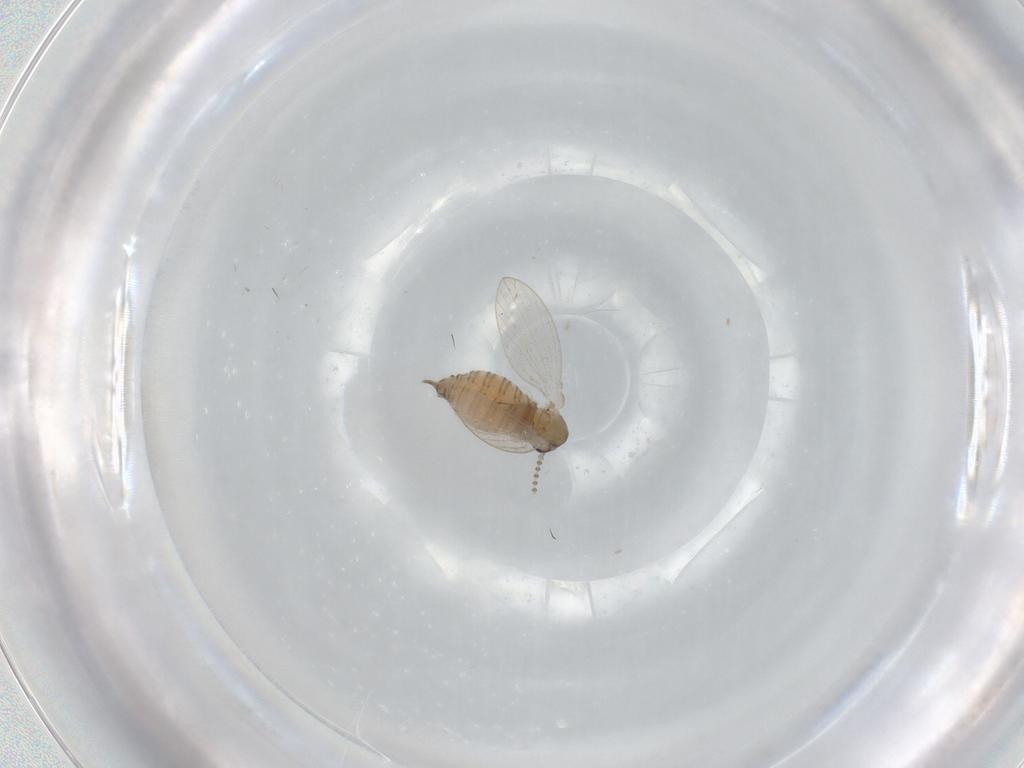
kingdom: Animalia
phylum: Arthropoda
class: Insecta
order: Diptera
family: Psychodidae
